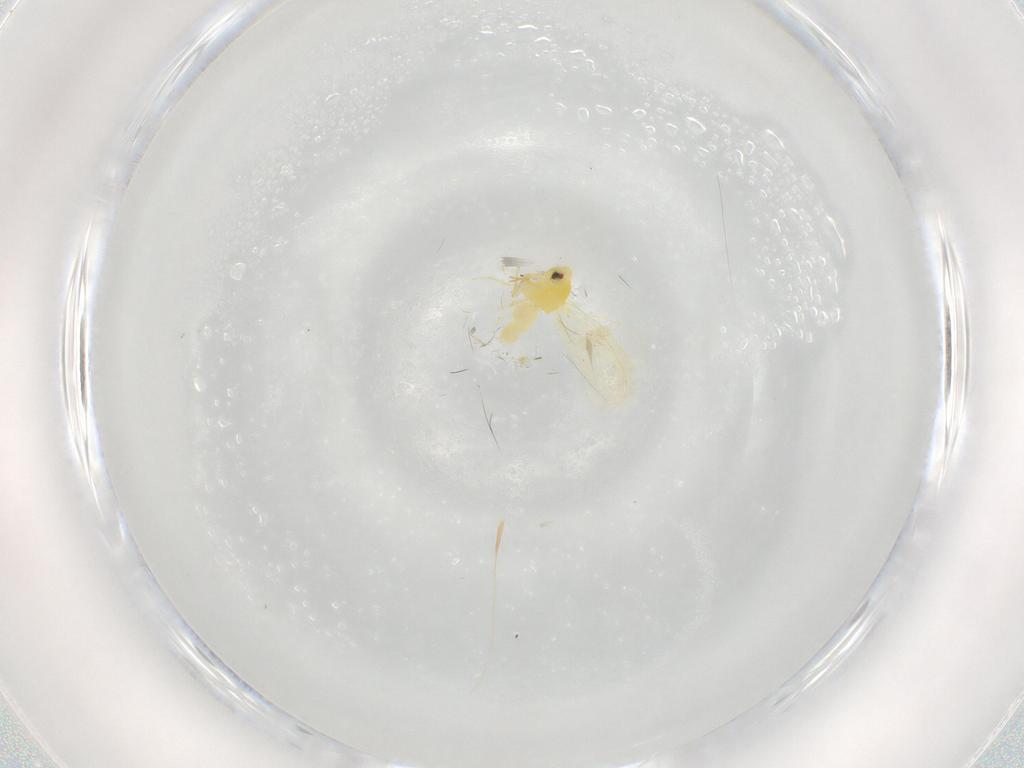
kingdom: Animalia
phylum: Arthropoda
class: Insecta
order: Hemiptera
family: Aleyrodidae
